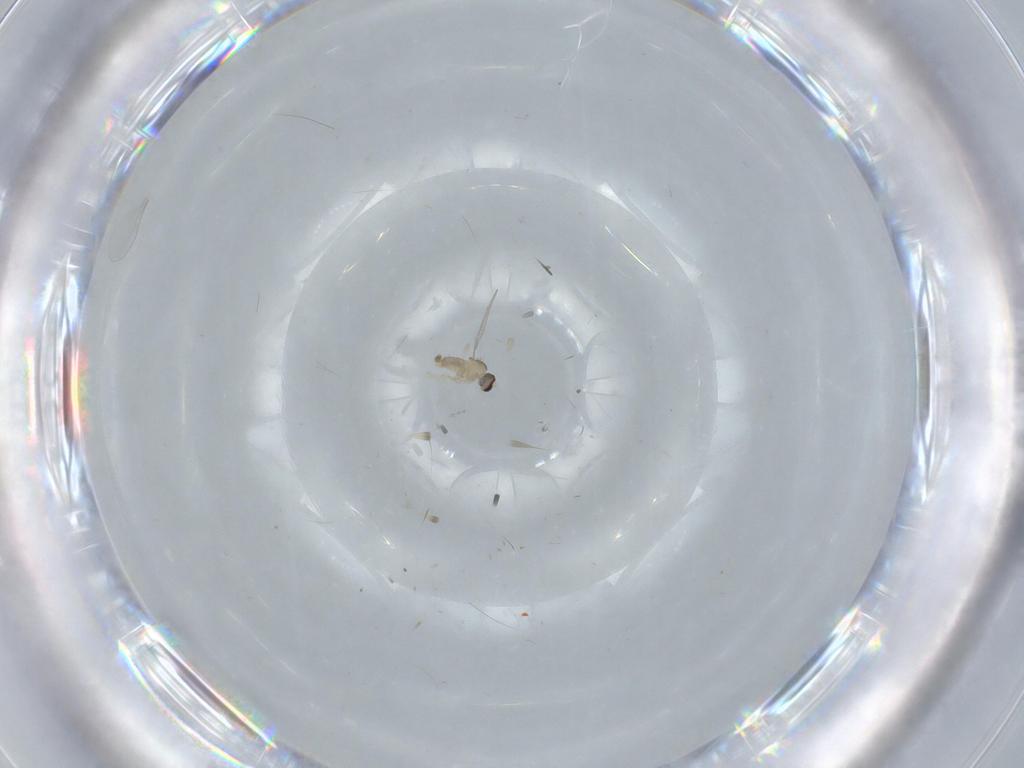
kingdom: Animalia
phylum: Arthropoda
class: Insecta
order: Diptera
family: Cecidomyiidae
